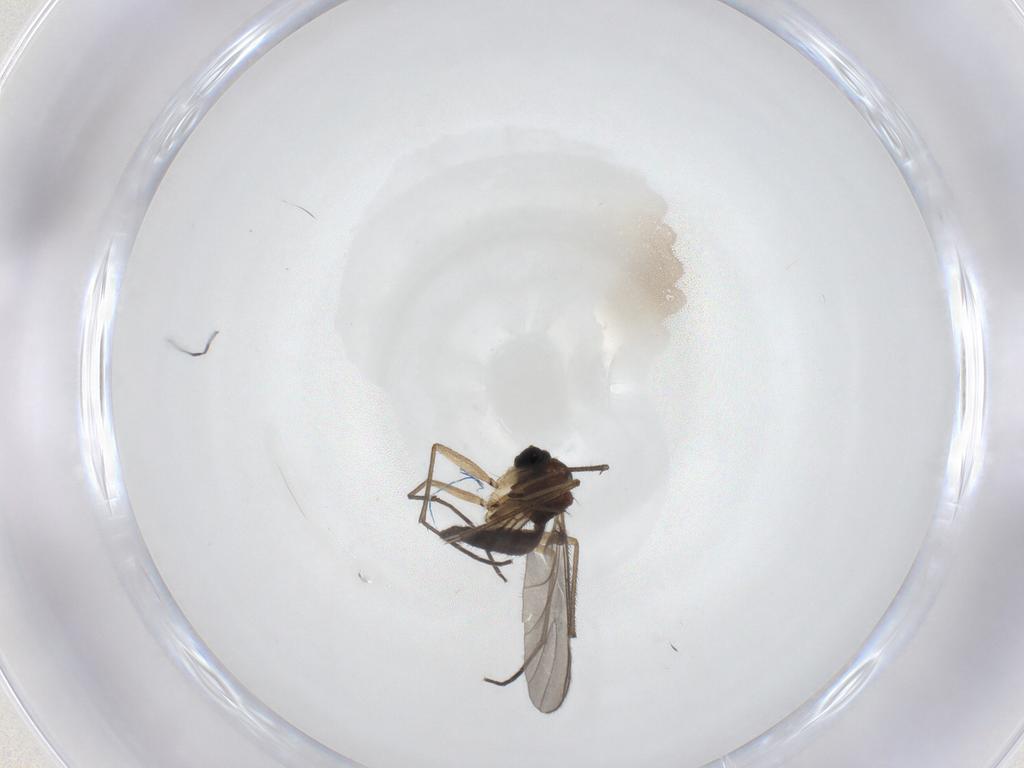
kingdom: Animalia
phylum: Arthropoda
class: Insecta
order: Diptera
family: Sciaridae
